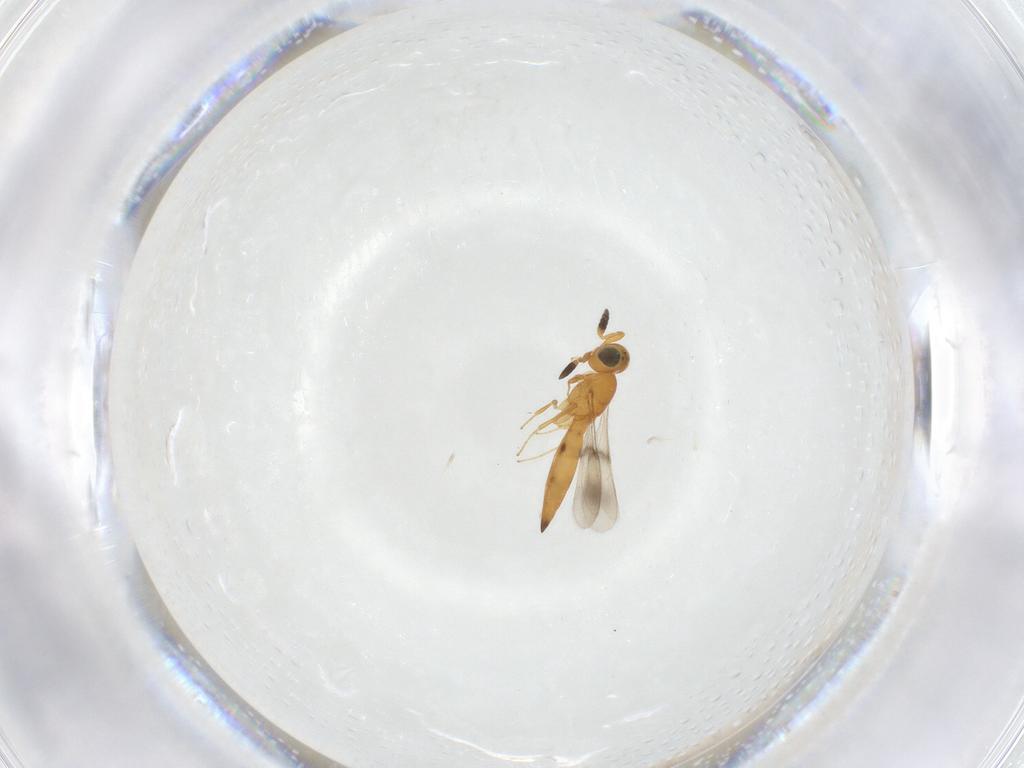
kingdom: Animalia
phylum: Arthropoda
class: Insecta
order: Hymenoptera
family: Scelionidae
